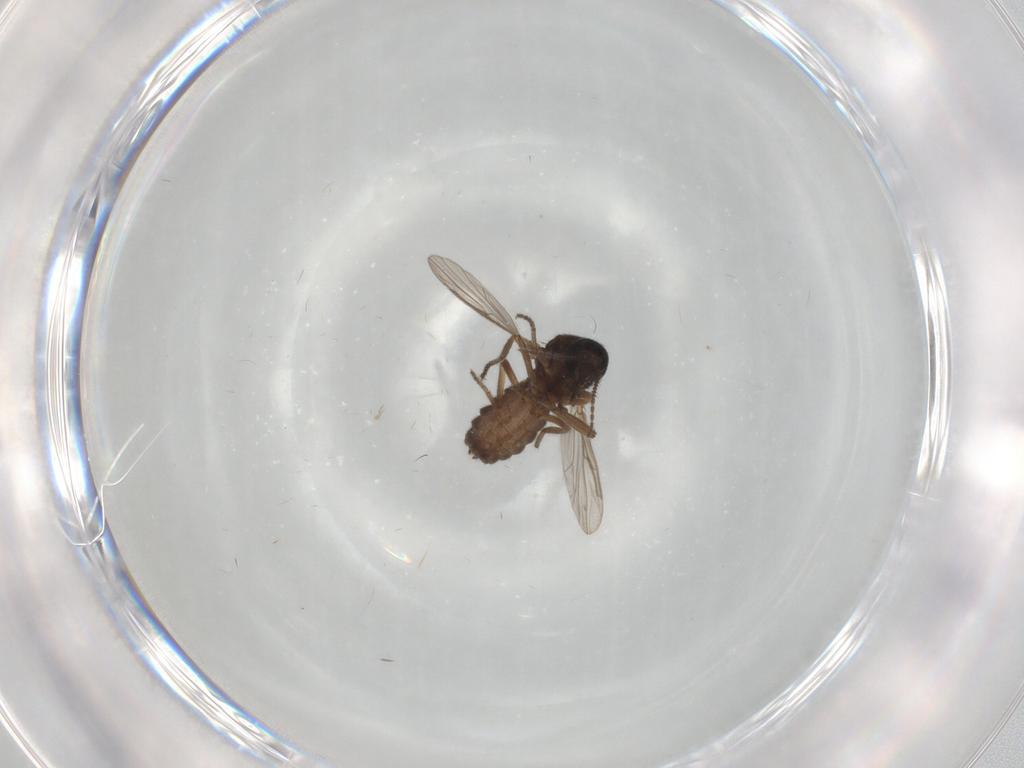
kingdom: Animalia
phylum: Arthropoda
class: Insecta
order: Diptera
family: Ceratopogonidae
